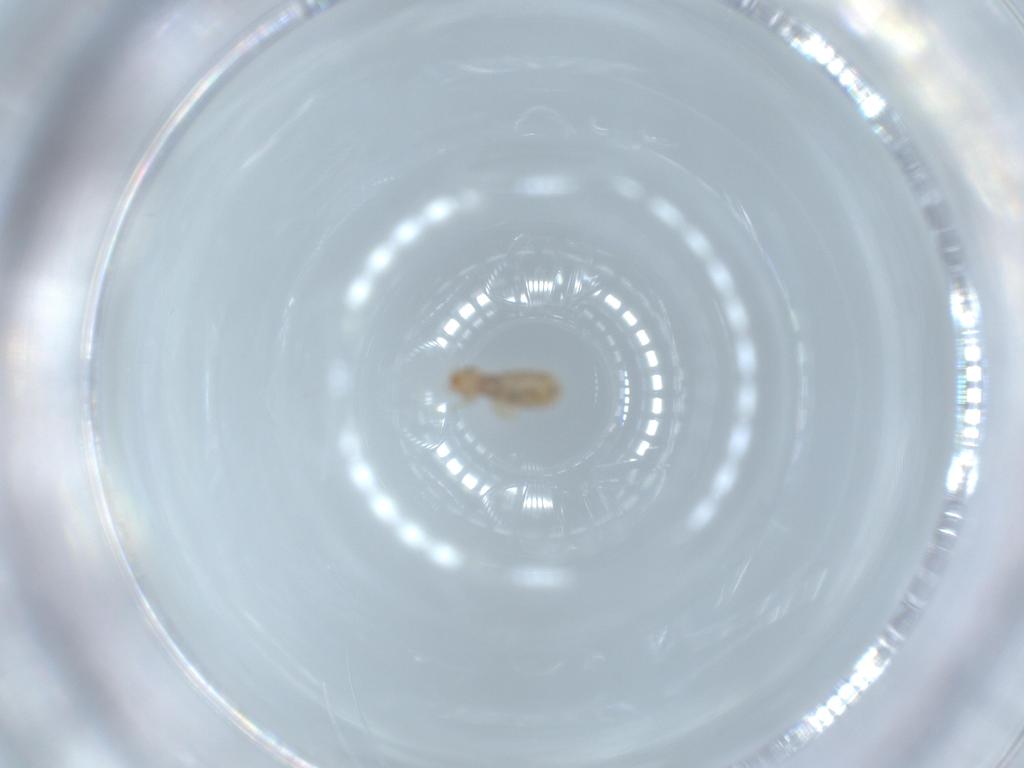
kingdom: Animalia
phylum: Arthropoda
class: Insecta
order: Psocodea
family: Liposcelididae
